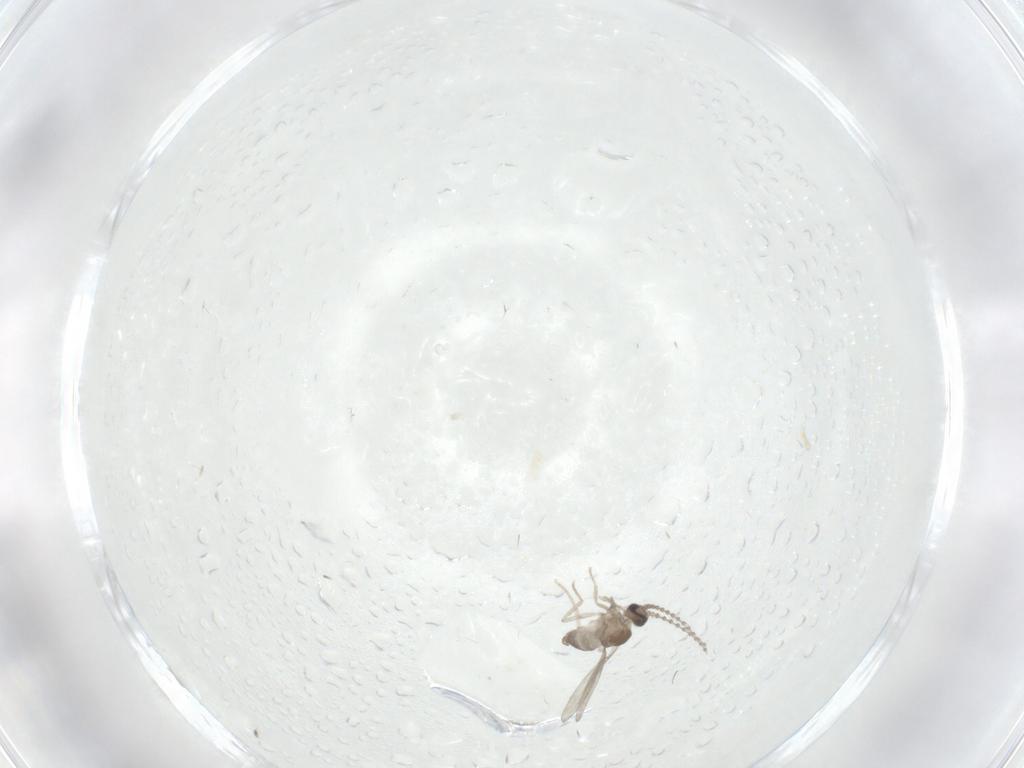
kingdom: Animalia
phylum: Arthropoda
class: Insecta
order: Diptera
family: Cecidomyiidae
